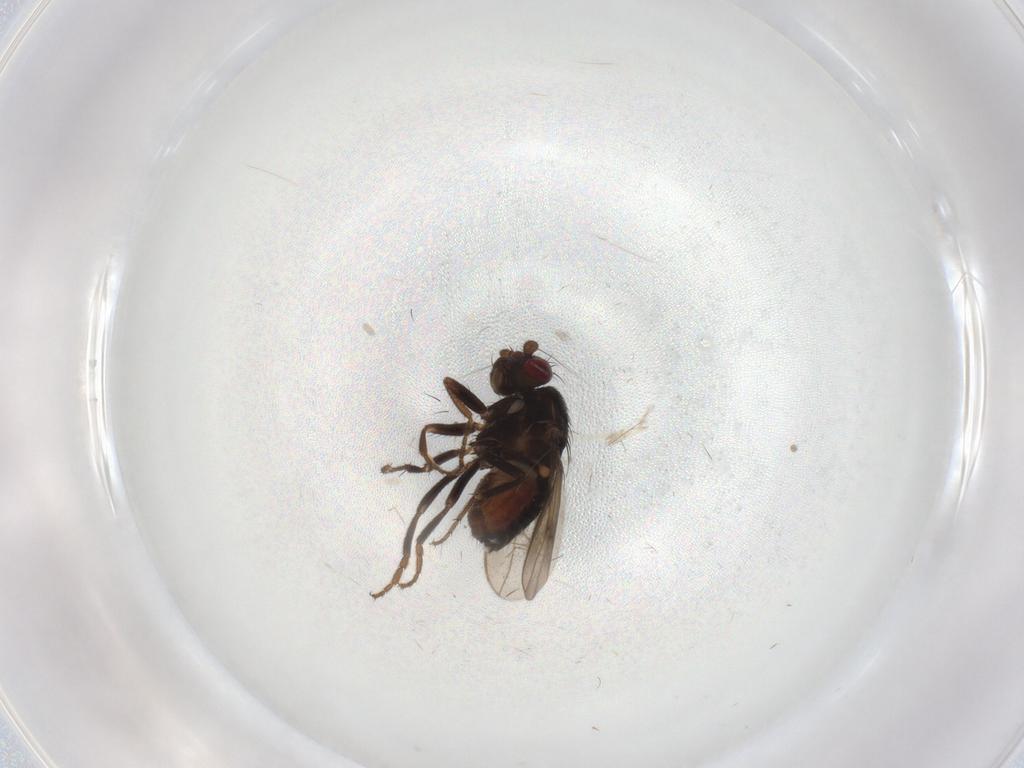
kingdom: Animalia
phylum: Arthropoda
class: Insecta
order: Diptera
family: Sphaeroceridae
